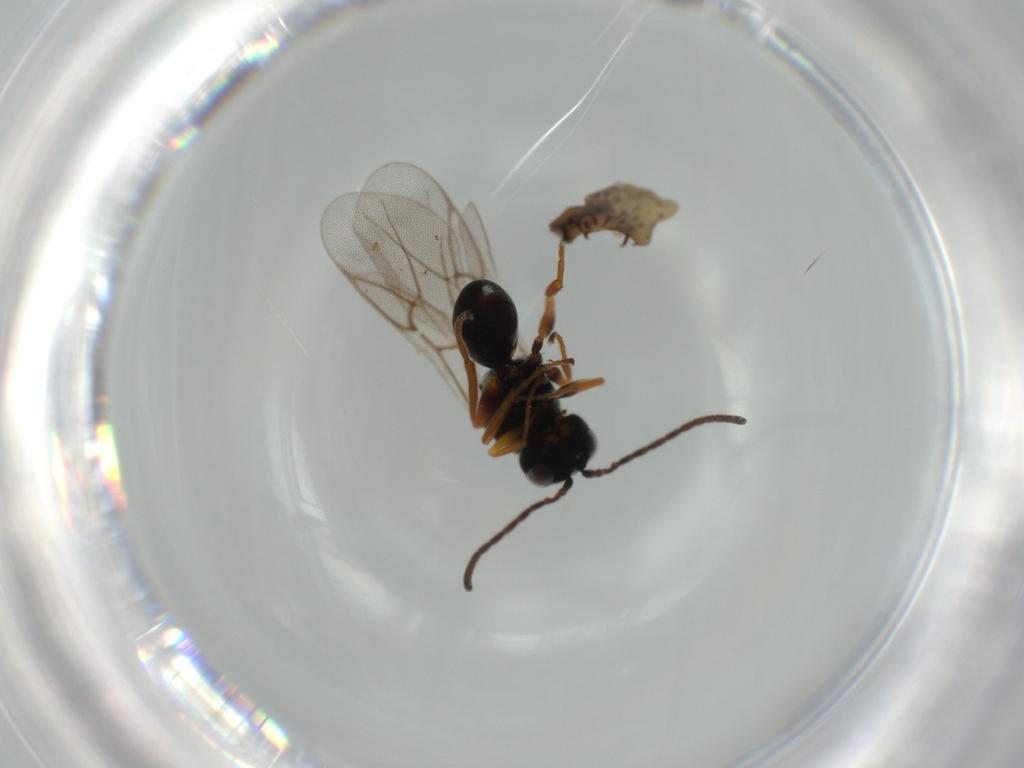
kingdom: Animalia
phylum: Arthropoda
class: Insecta
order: Hymenoptera
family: Cynipidae
